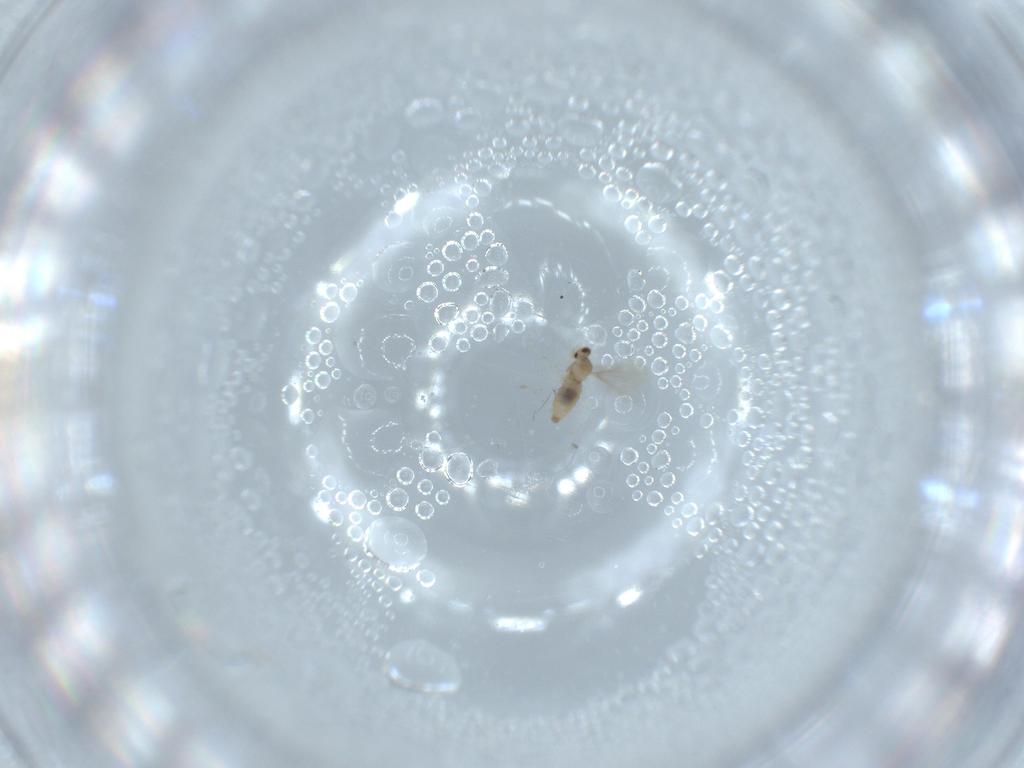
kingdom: Animalia
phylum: Arthropoda
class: Insecta
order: Diptera
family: Cecidomyiidae
